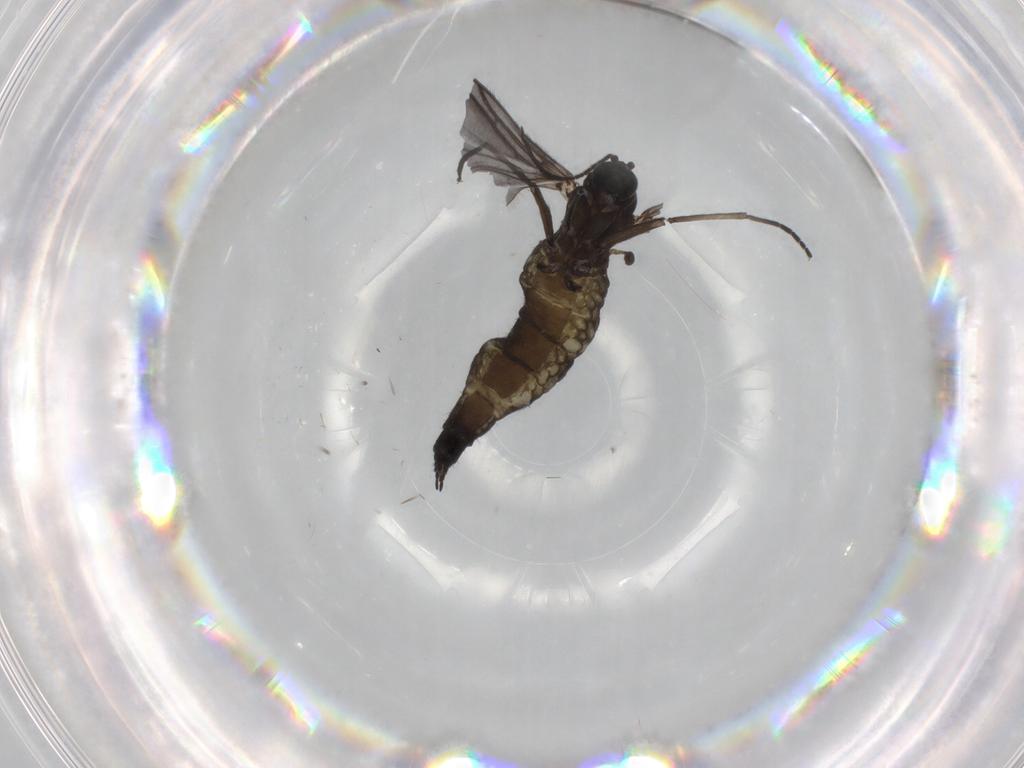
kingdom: Animalia
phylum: Arthropoda
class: Insecta
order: Diptera
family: Sciaridae
